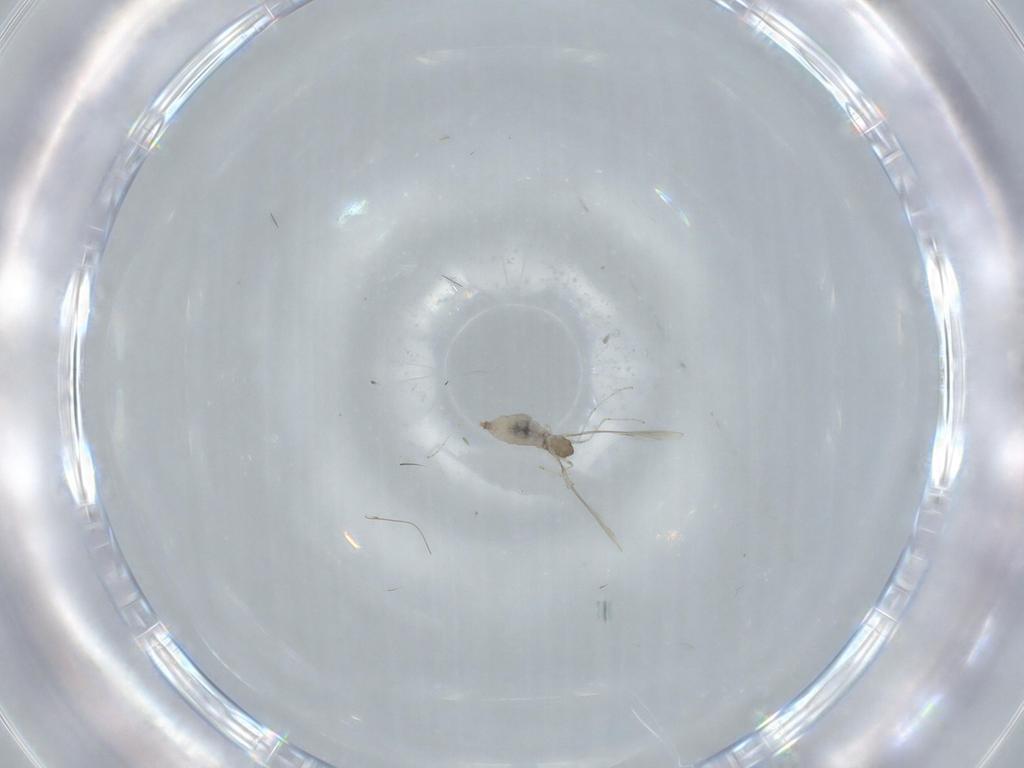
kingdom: Animalia
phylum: Arthropoda
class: Insecta
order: Diptera
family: Cecidomyiidae
